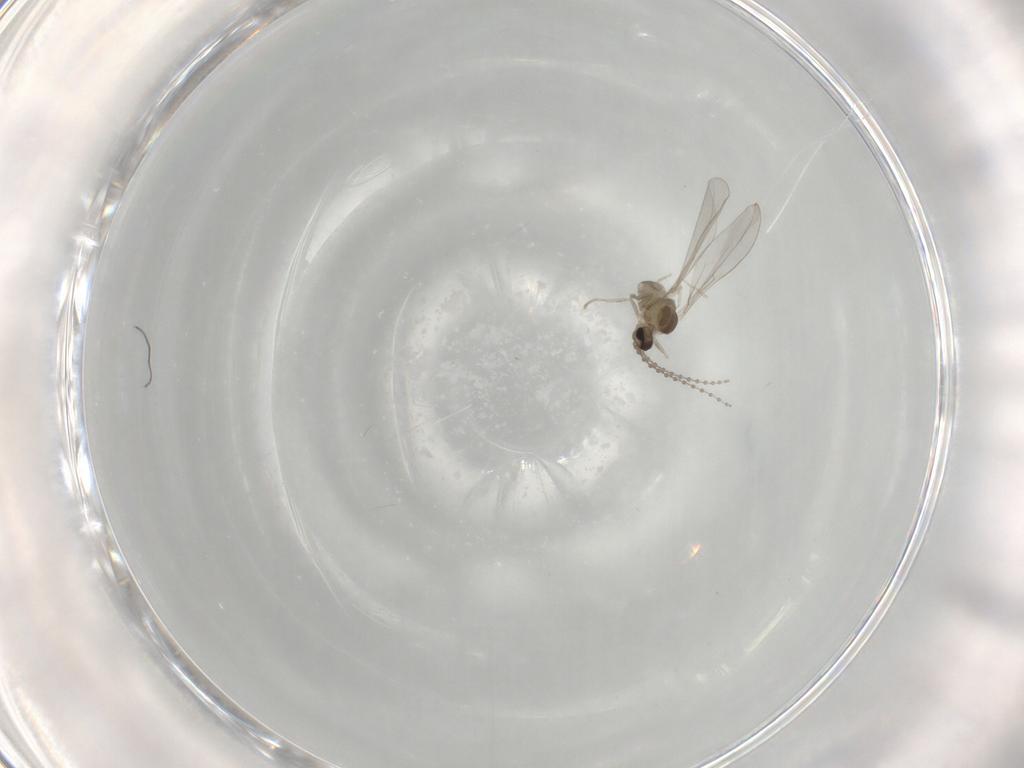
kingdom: Animalia
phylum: Arthropoda
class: Insecta
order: Diptera
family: Cecidomyiidae
